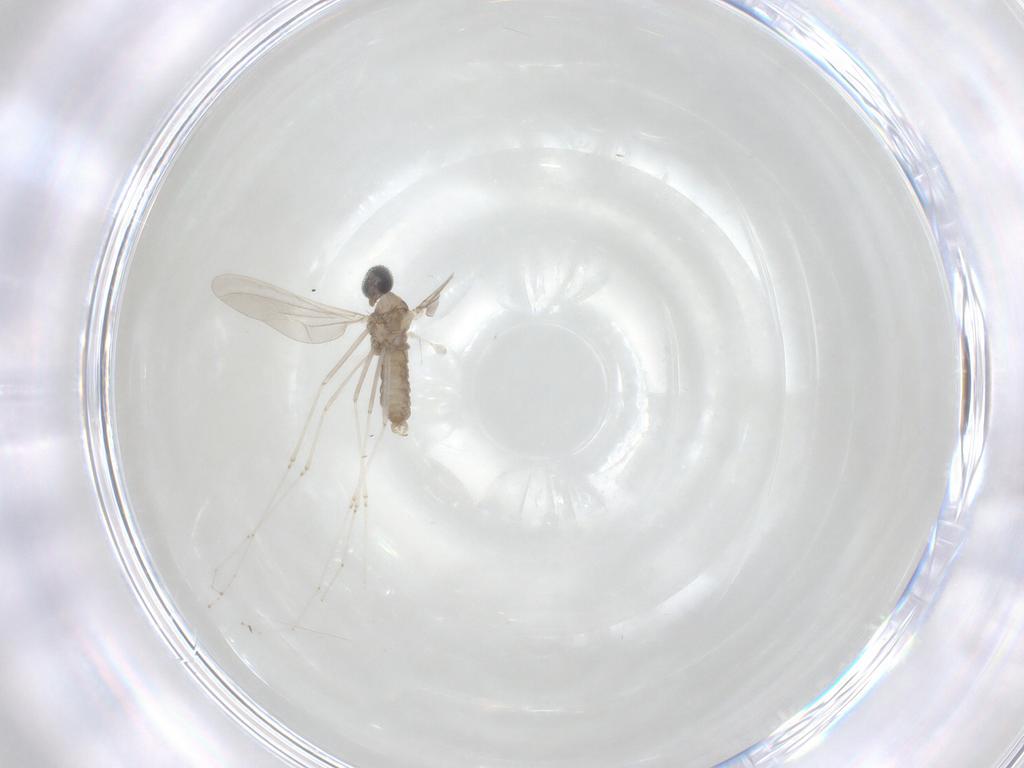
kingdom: Animalia
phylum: Arthropoda
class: Insecta
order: Diptera
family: Cecidomyiidae
